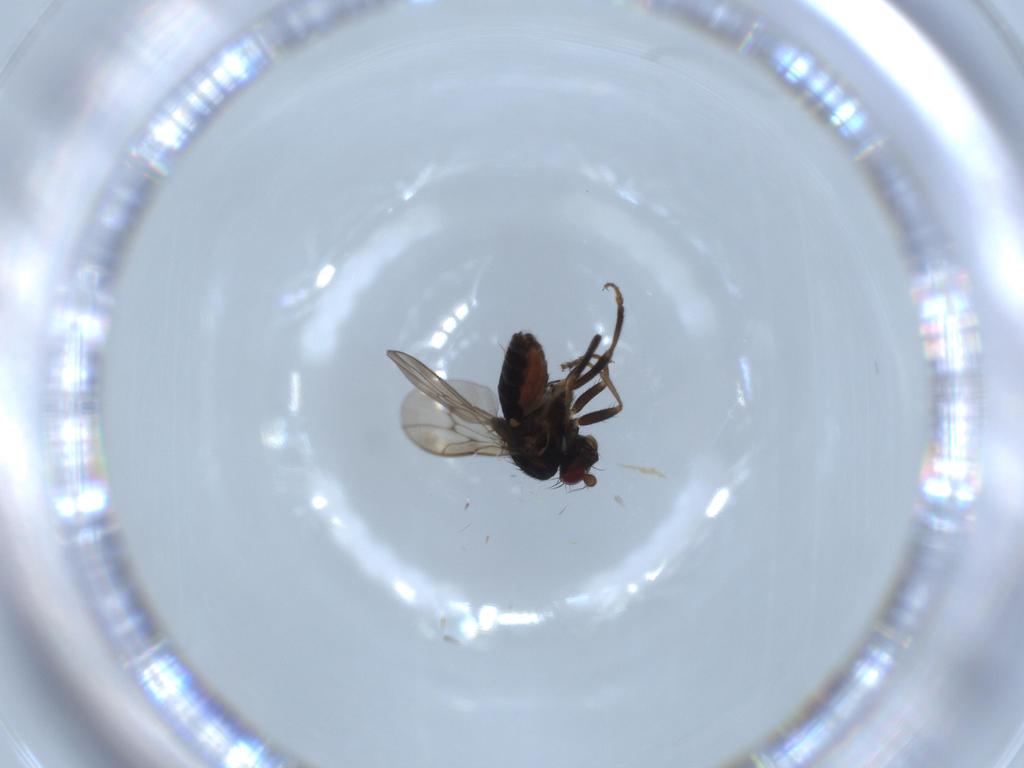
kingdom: Animalia
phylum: Arthropoda
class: Insecta
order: Diptera
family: Sphaeroceridae
